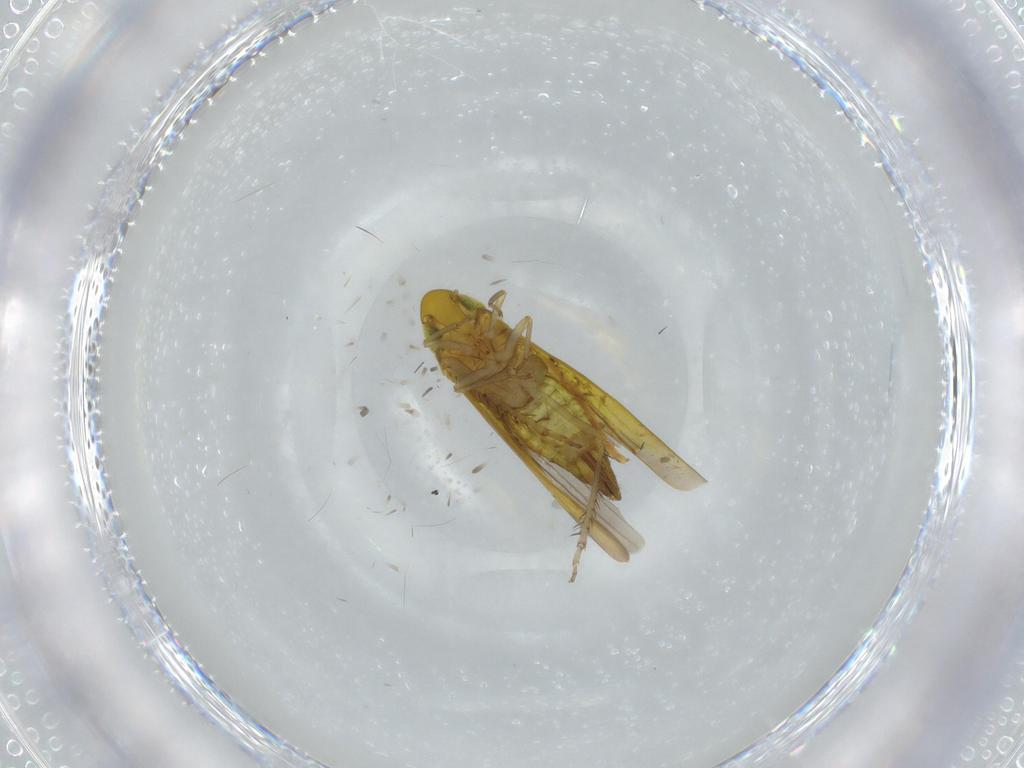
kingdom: Animalia
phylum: Arthropoda
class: Insecta
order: Hemiptera
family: Cicadellidae
